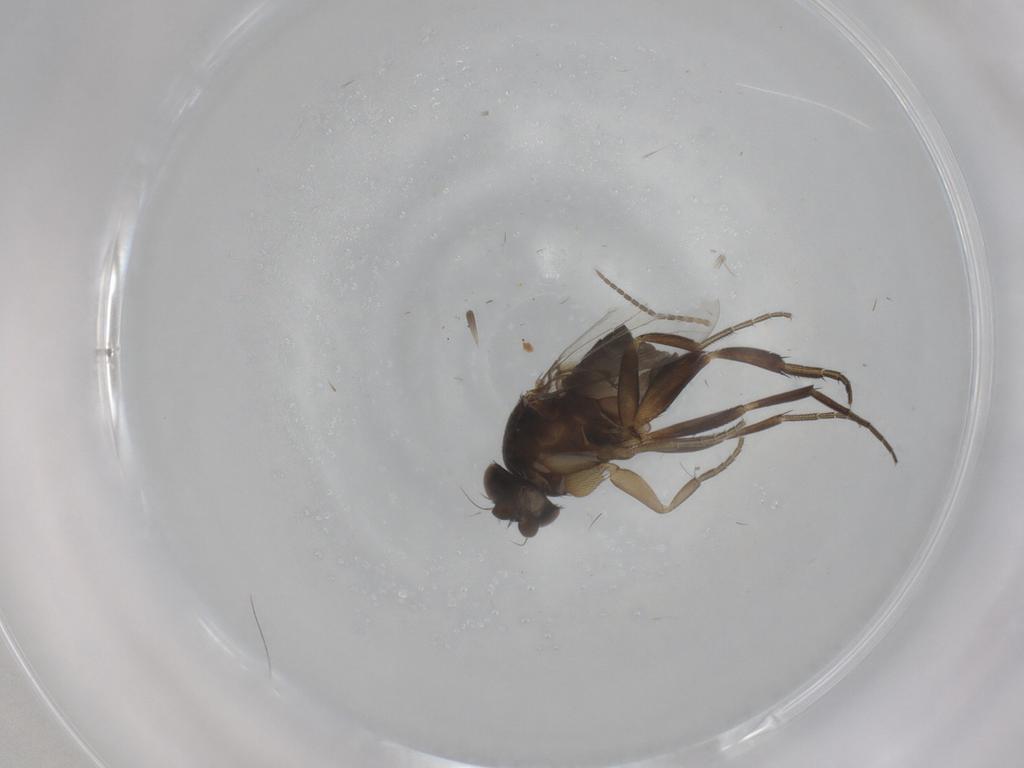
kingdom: Animalia
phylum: Arthropoda
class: Insecta
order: Diptera
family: Phoridae
